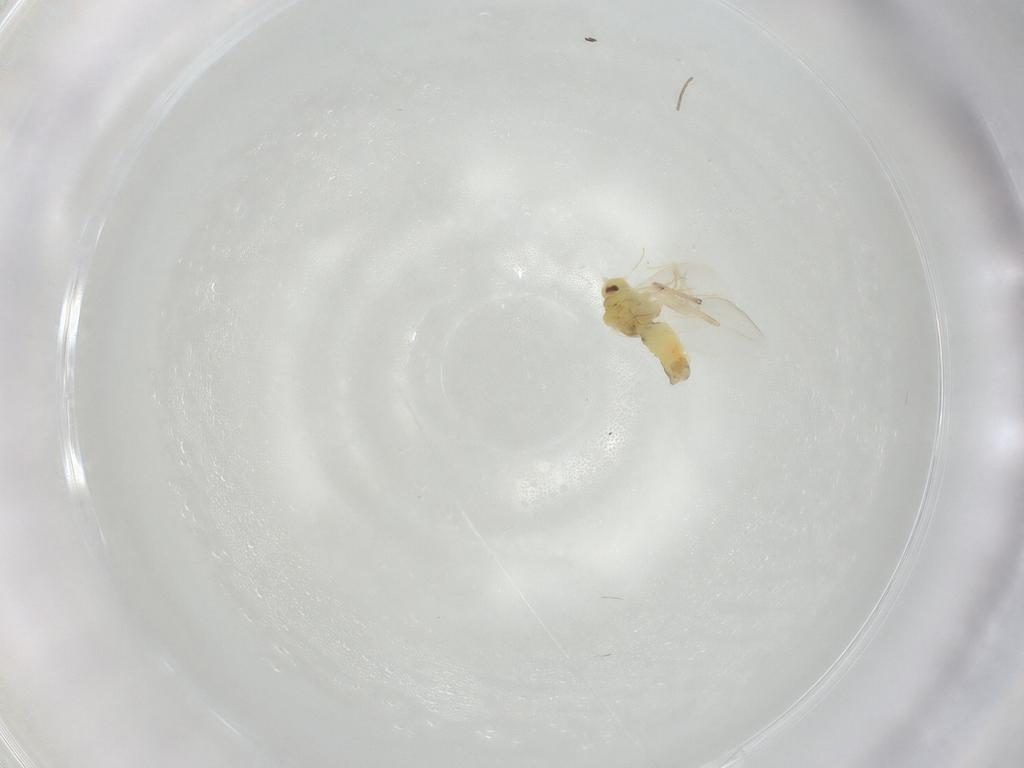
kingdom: Animalia
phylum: Arthropoda
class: Insecta
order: Hemiptera
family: Aleyrodidae
